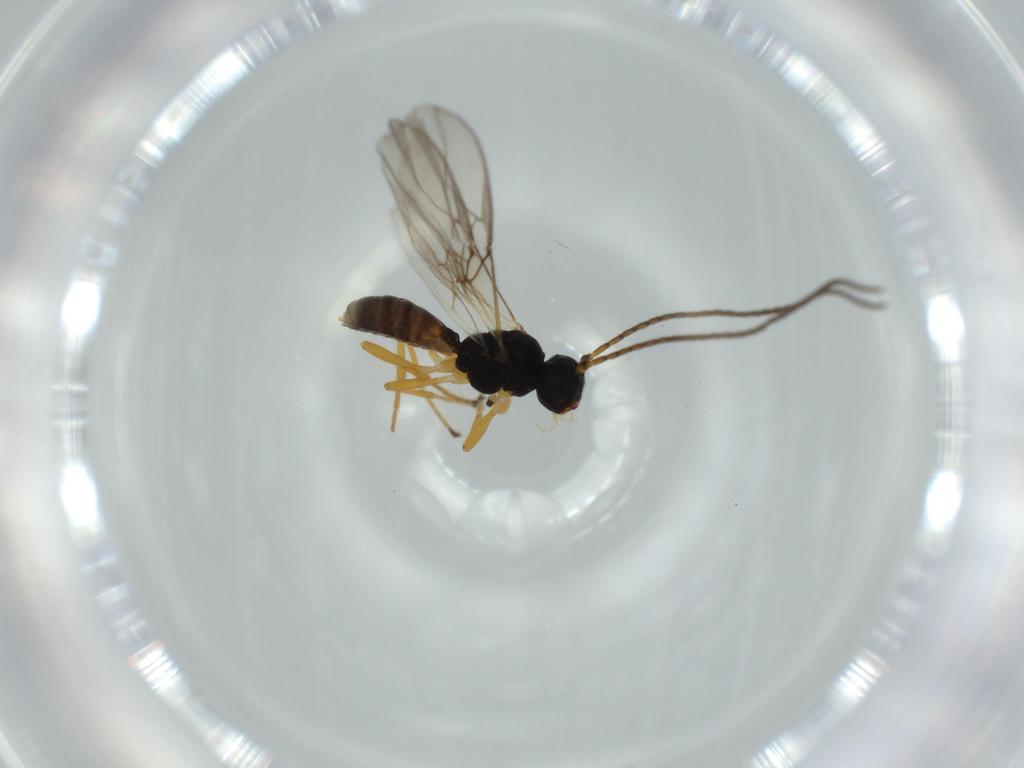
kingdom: Animalia
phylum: Arthropoda
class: Insecta
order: Hymenoptera
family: Braconidae
